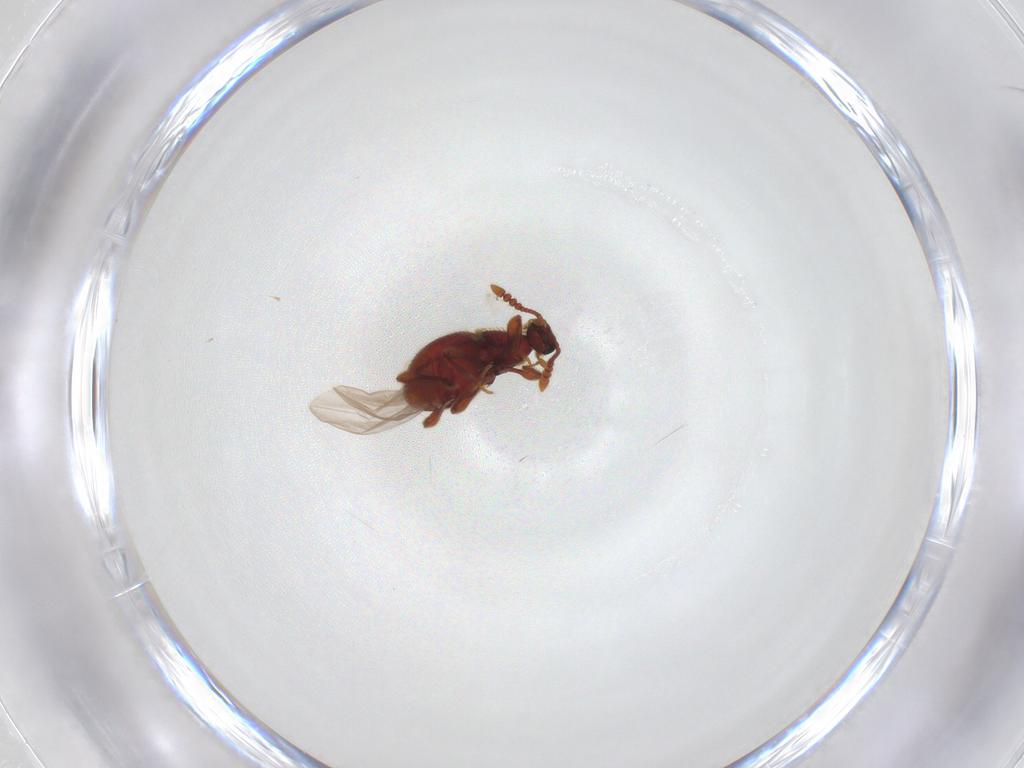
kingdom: Animalia
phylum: Arthropoda
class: Insecta
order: Coleoptera
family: Staphylinidae
